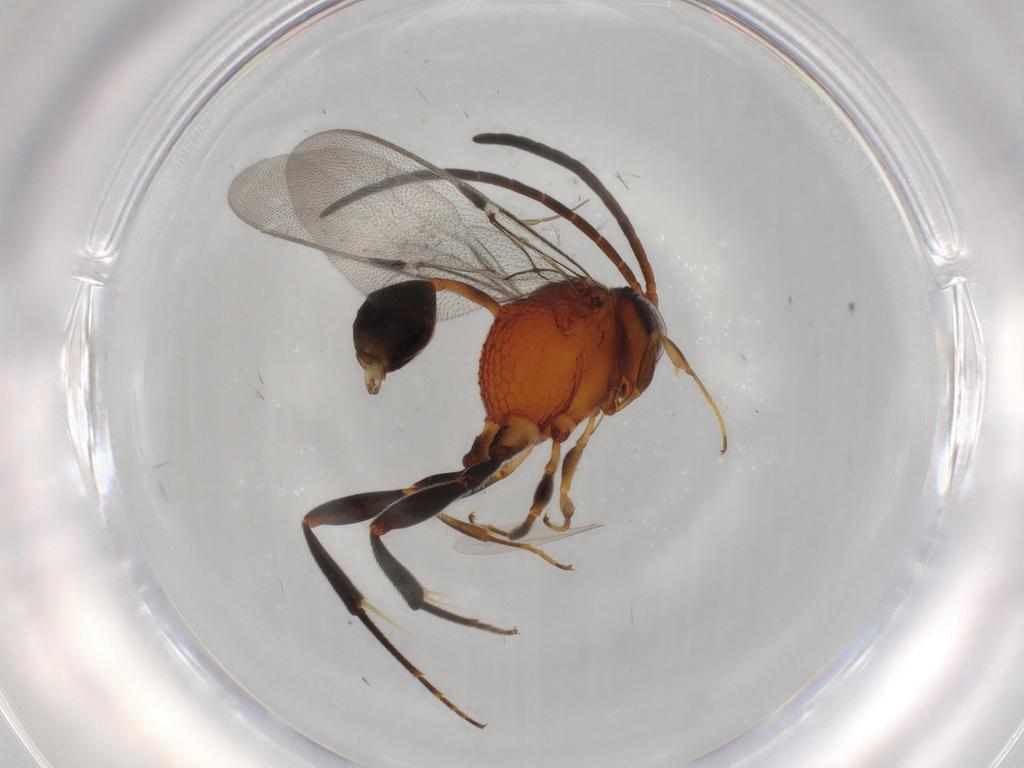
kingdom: Animalia
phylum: Arthropoda
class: Insecta
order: Hymenoptera
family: Evaniidae
